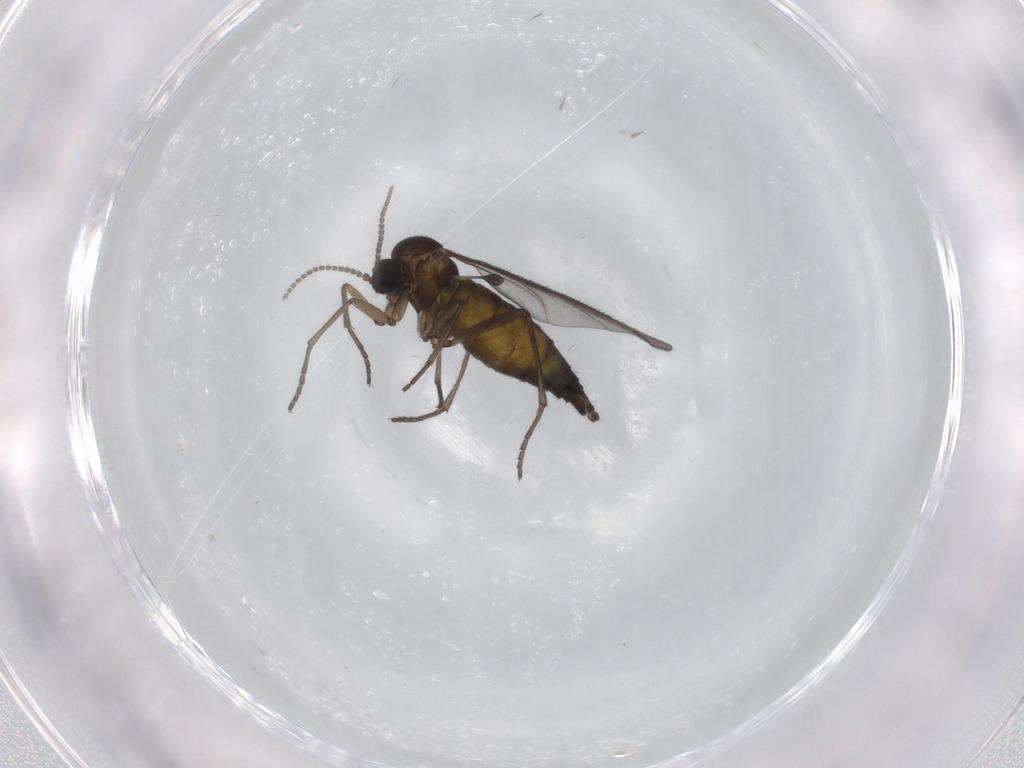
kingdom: Animalia
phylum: Arthropoda
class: Insecta
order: Diptera
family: Sciaridae
